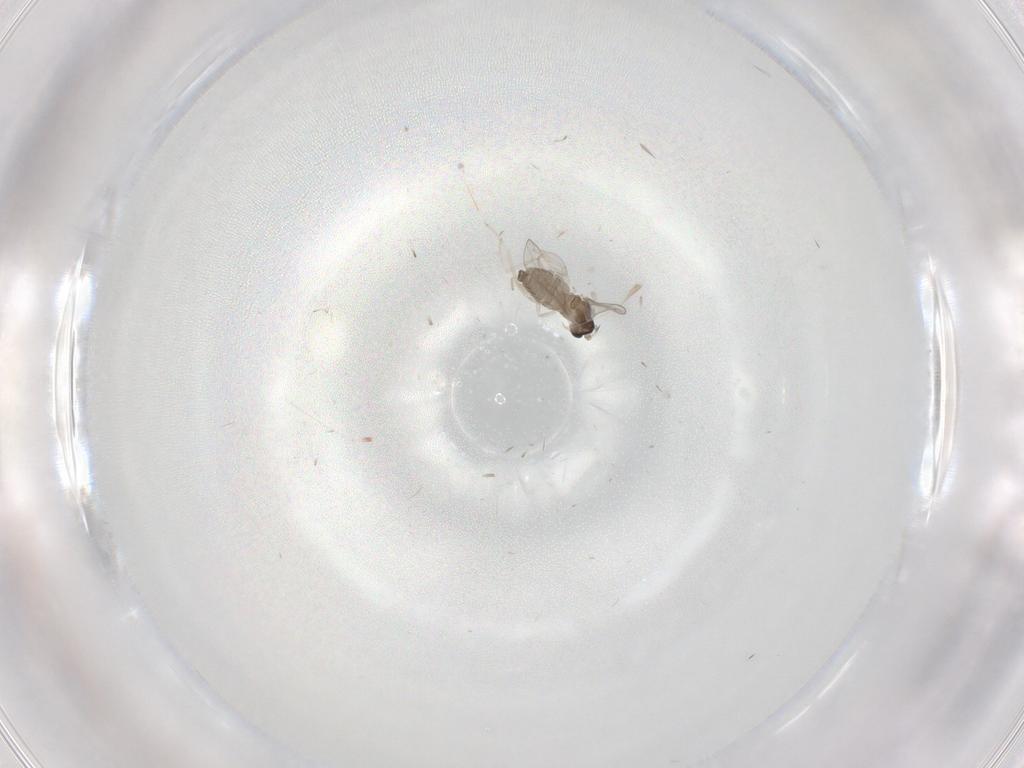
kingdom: Animalia
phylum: Arthropoda
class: Insecta
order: Diptera
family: Cecidomyiidae
